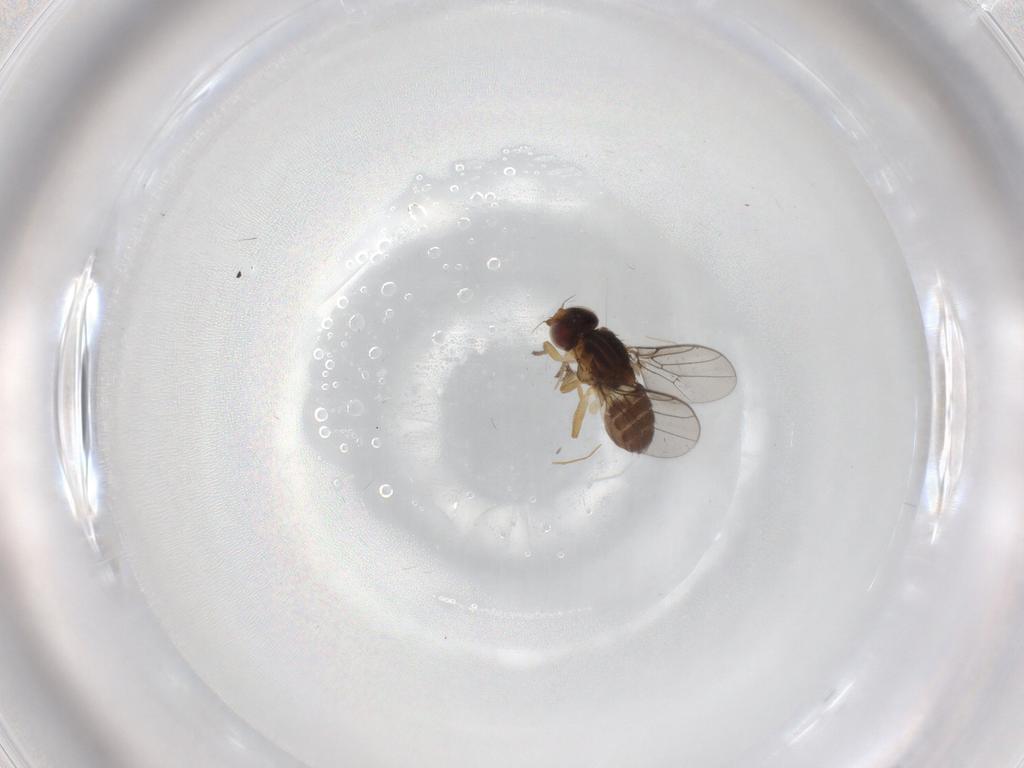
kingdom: Animalia
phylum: Arthropoda
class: Insecta
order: Diptera
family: Chloropidae
